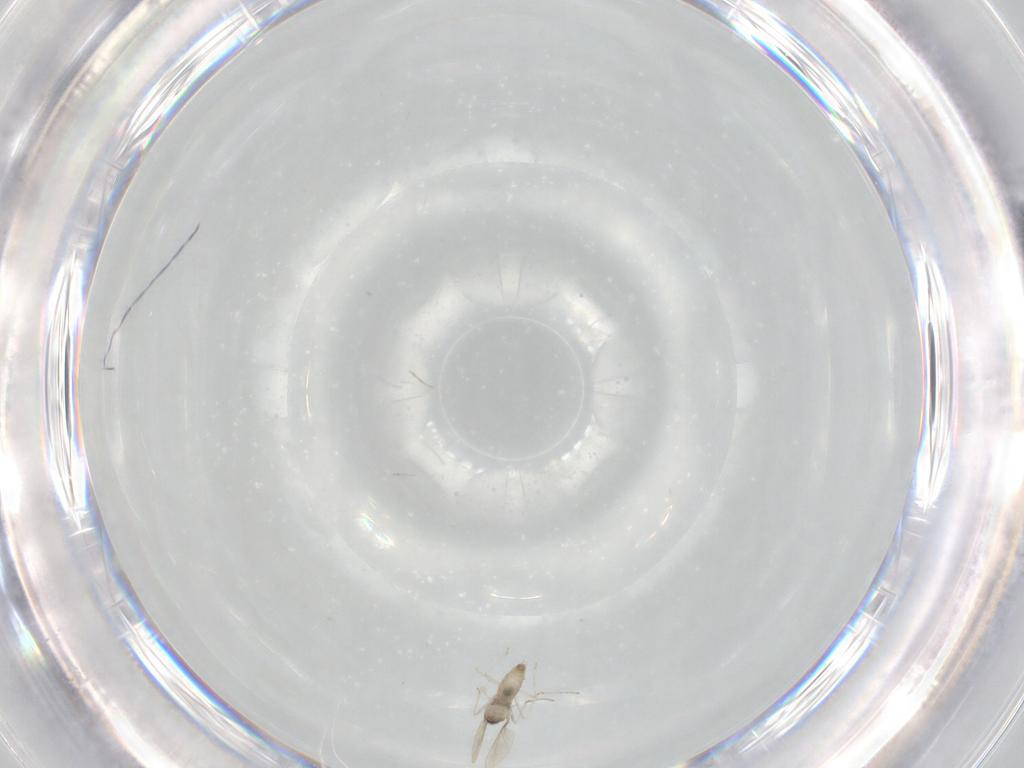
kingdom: Animalia
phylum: Arthropoda
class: Insecta
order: Diptera
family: Cecidomyiidae
